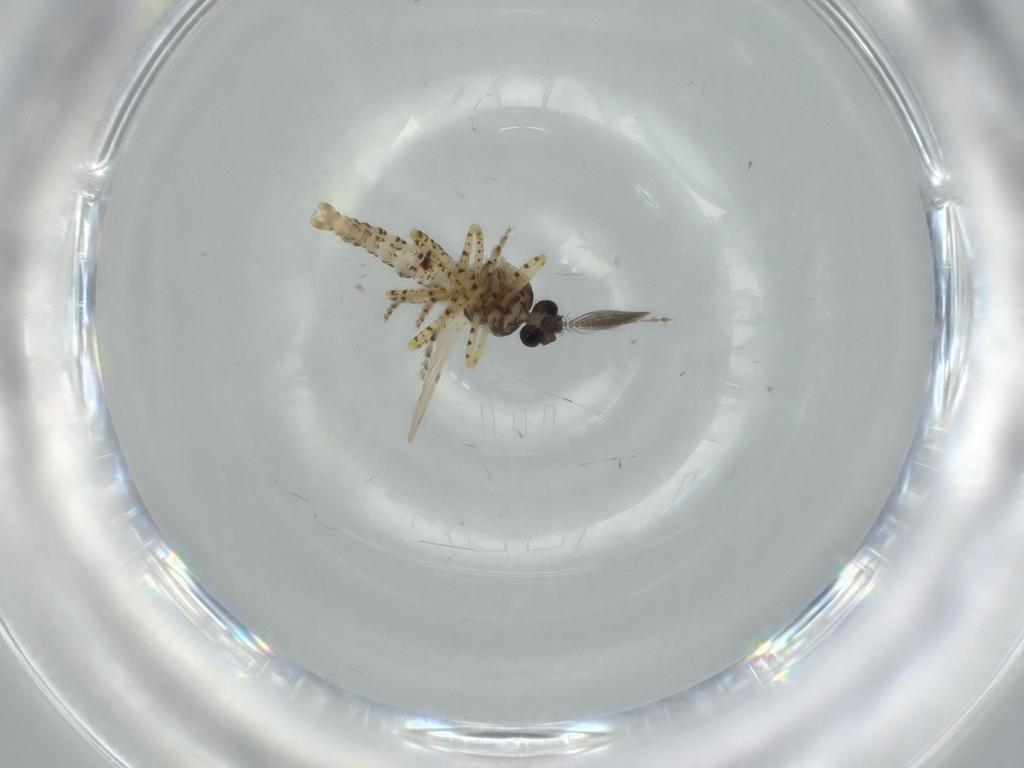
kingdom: Animalia
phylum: Arthropoda
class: Insecta
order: Diptera
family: Ceratopogonidae
